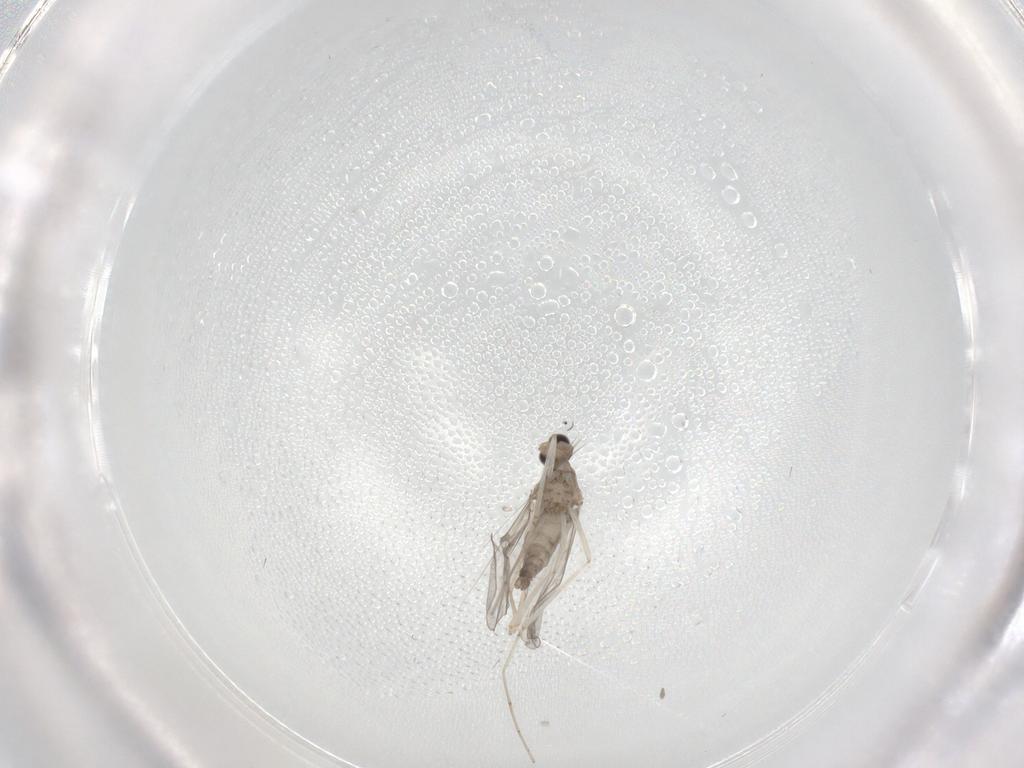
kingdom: Animalia
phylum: Arthropoda
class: Insecta
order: Diptera
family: Cecidomyiidae
